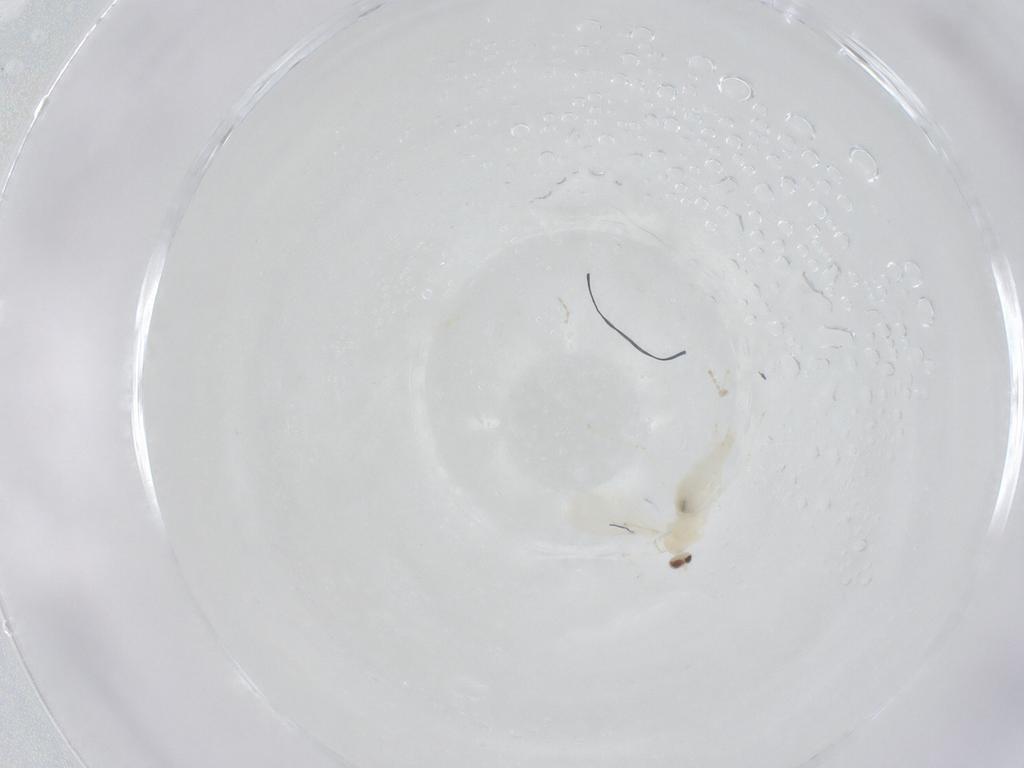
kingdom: Animalia
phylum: Arthropoda
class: Insecta
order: Diptera
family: Cecidomyiidae
